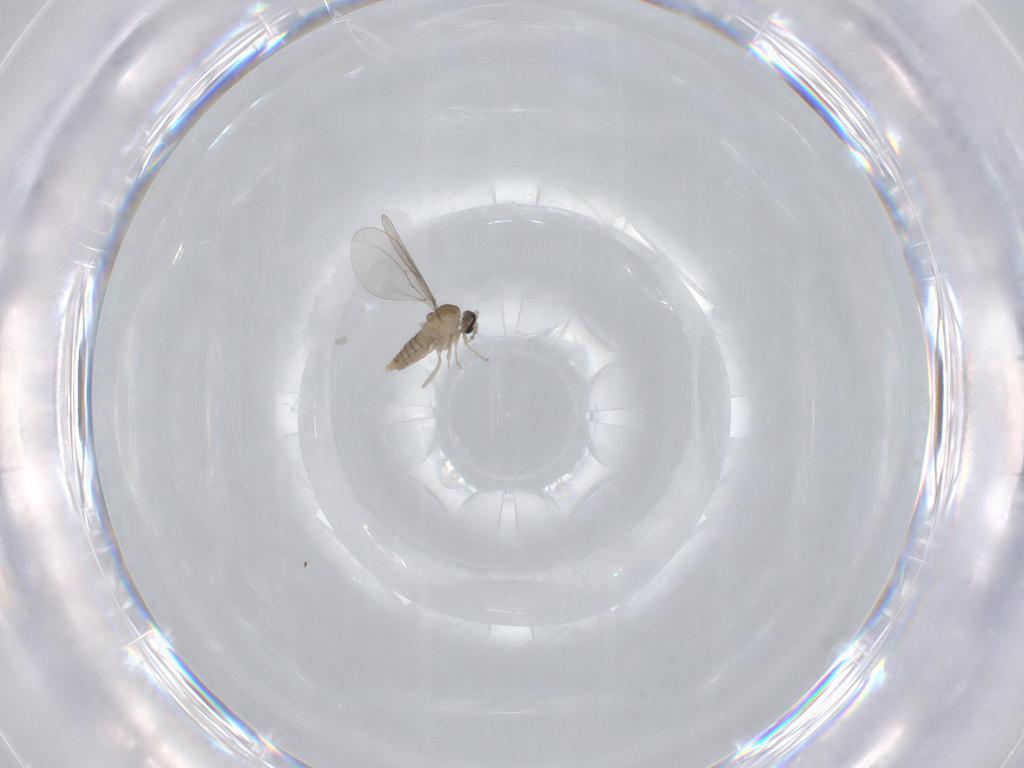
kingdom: Animalia
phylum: Arthropoda
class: Insecta
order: Diptera
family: Cecidomyiidae
